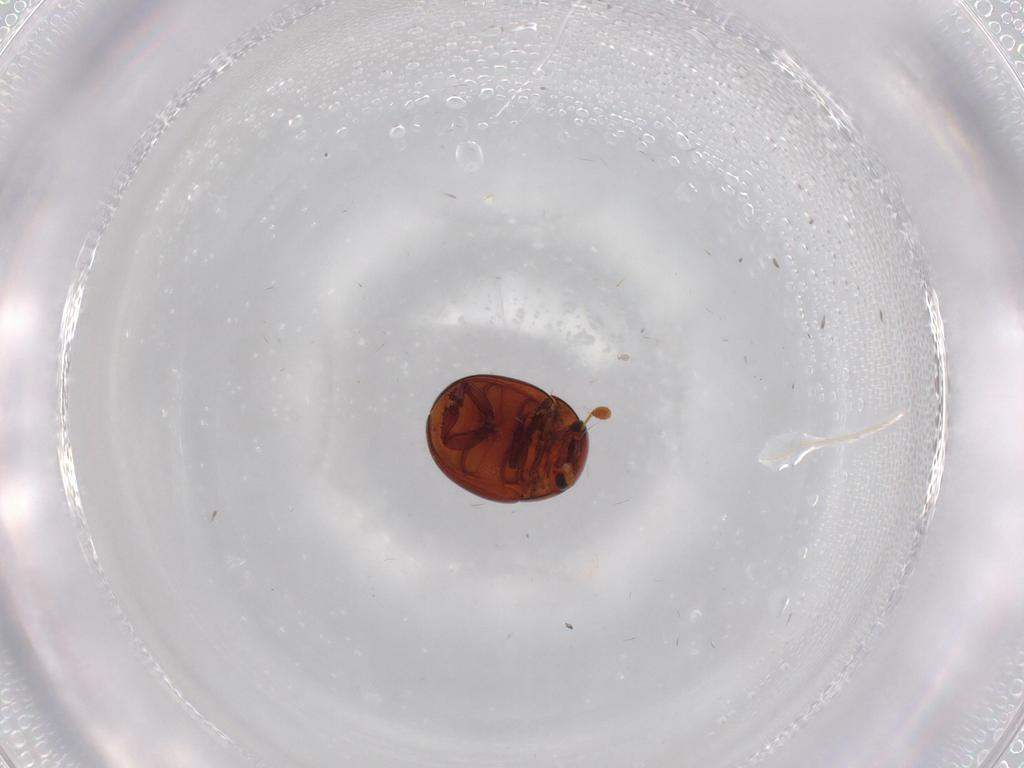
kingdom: Animalia
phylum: Arthropoda
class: Insecta
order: Coleoptera
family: Leiodidae
